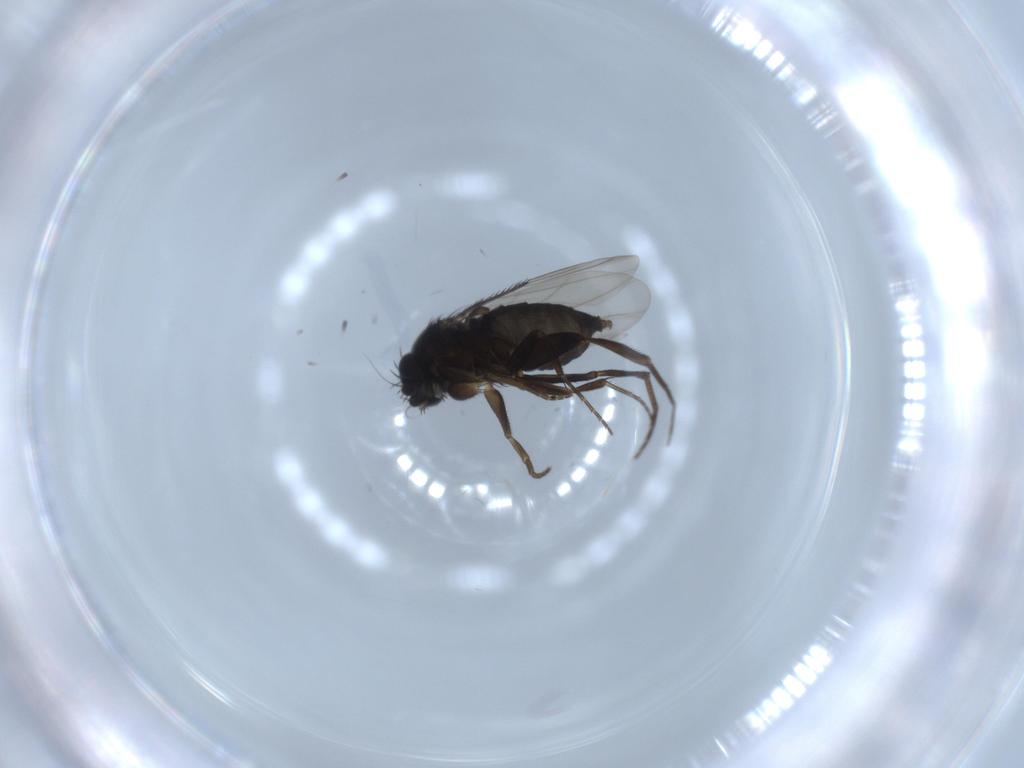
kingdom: Animalia
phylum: Arthropoda
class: Insecta
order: Diptera
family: Phoridae
